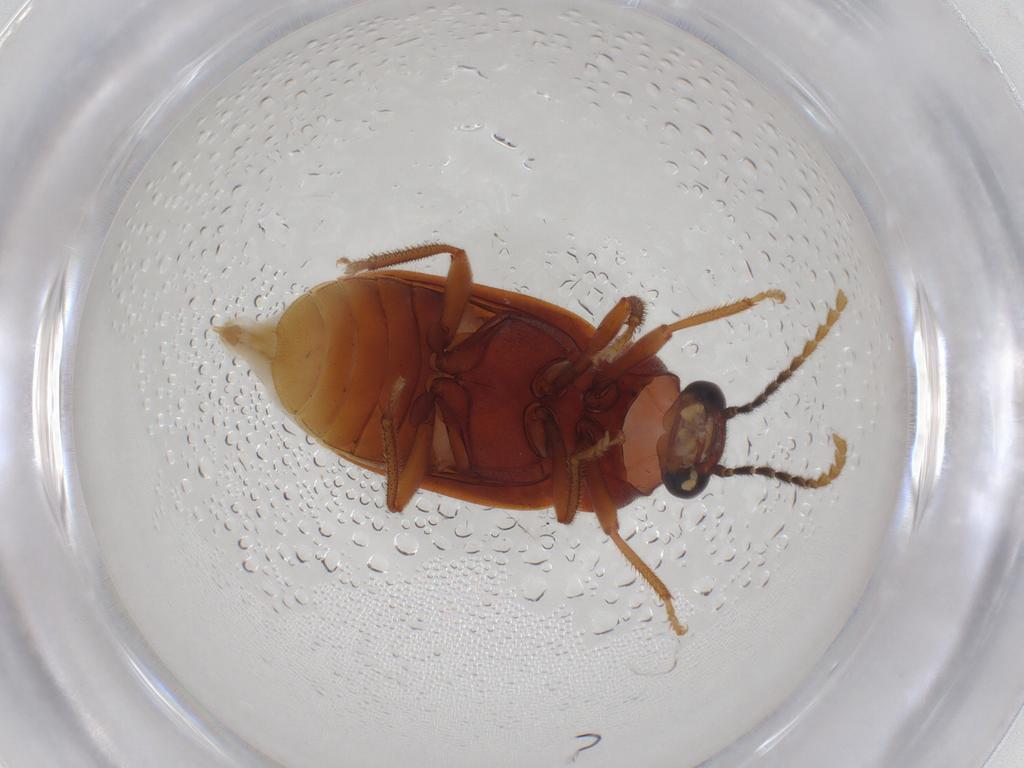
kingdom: Animalia
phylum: Arthropoda
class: Insecta
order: Coleoptera
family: Ptilodactylidae
